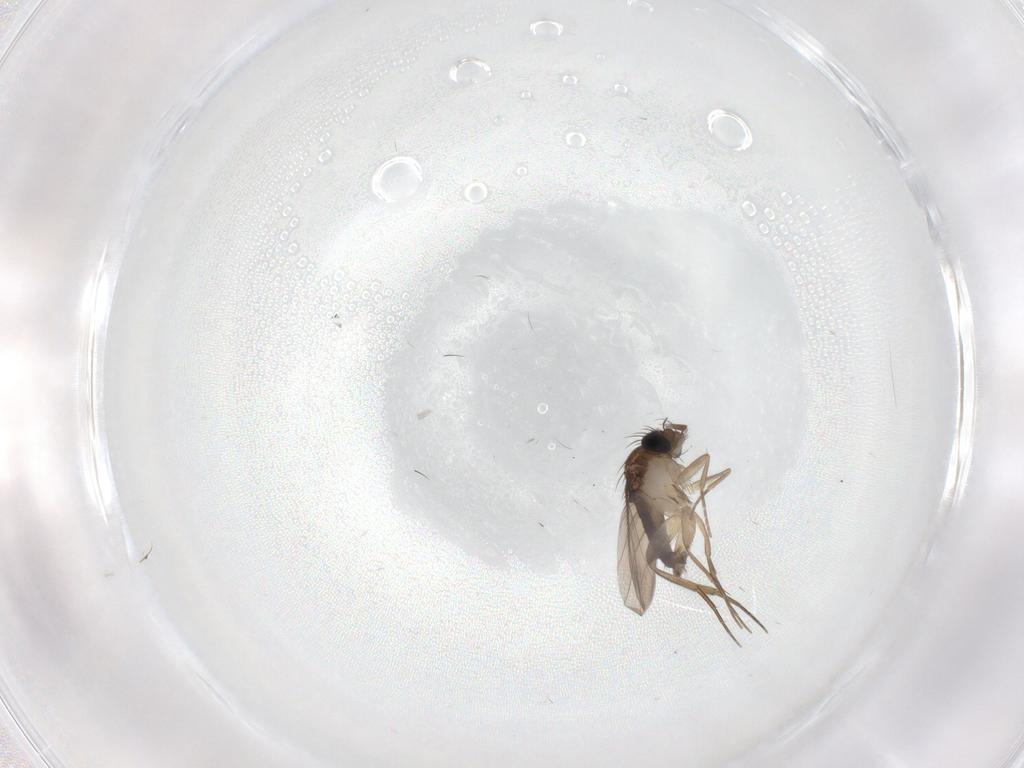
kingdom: Animalia
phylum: Arthropoda
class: Insecta
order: Diptera
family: Phoridae
